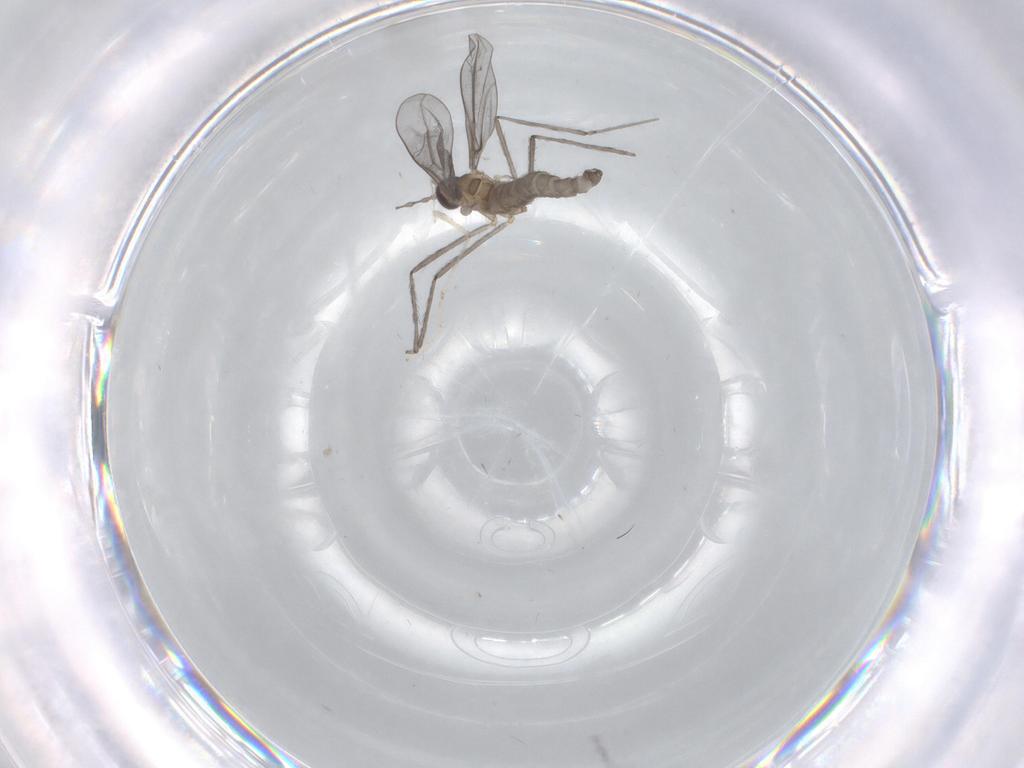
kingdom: Animalia
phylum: Arthropoda
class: Insecta
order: Diptera
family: Cecidomyiidae
